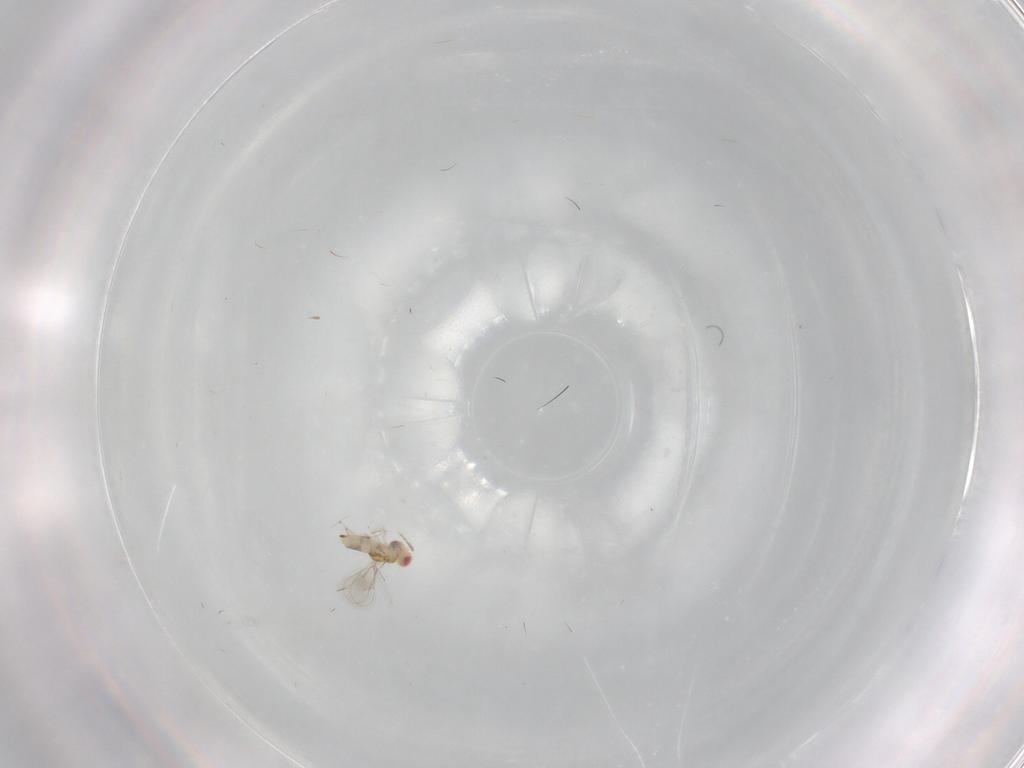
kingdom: Animalia
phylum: Arthropoda
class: Insecta
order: Hymenoptera
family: Eulophidae
